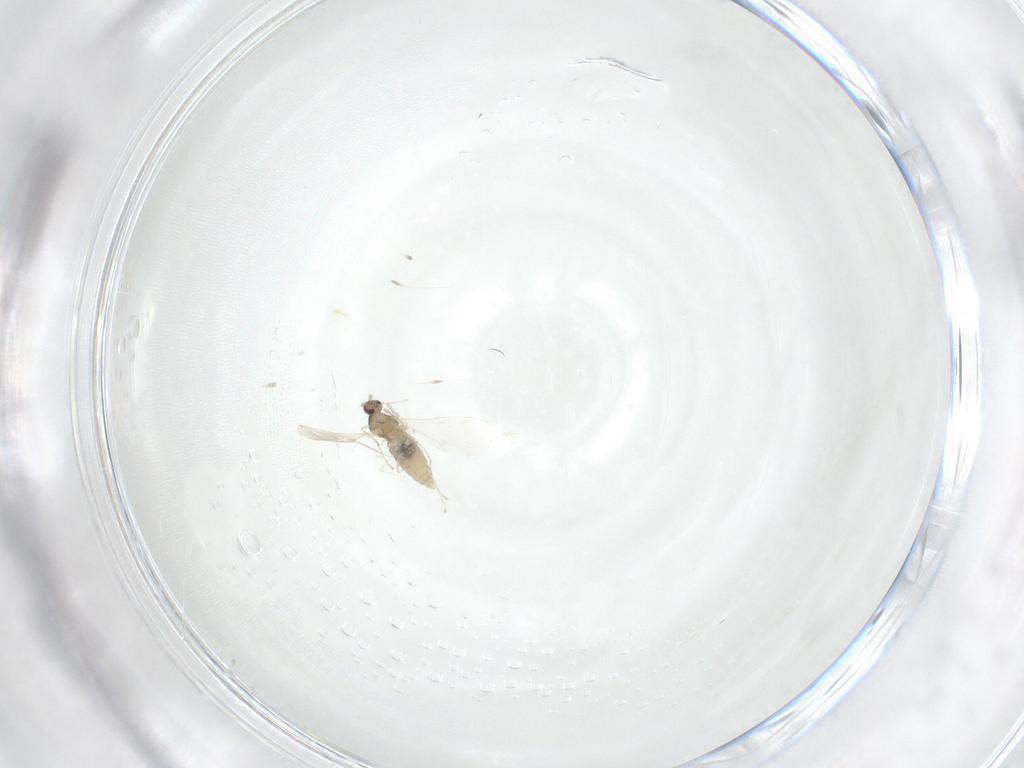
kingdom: Animalia
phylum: Arthropoda
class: Insecta
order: Diptera
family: Cecidomyiidae
